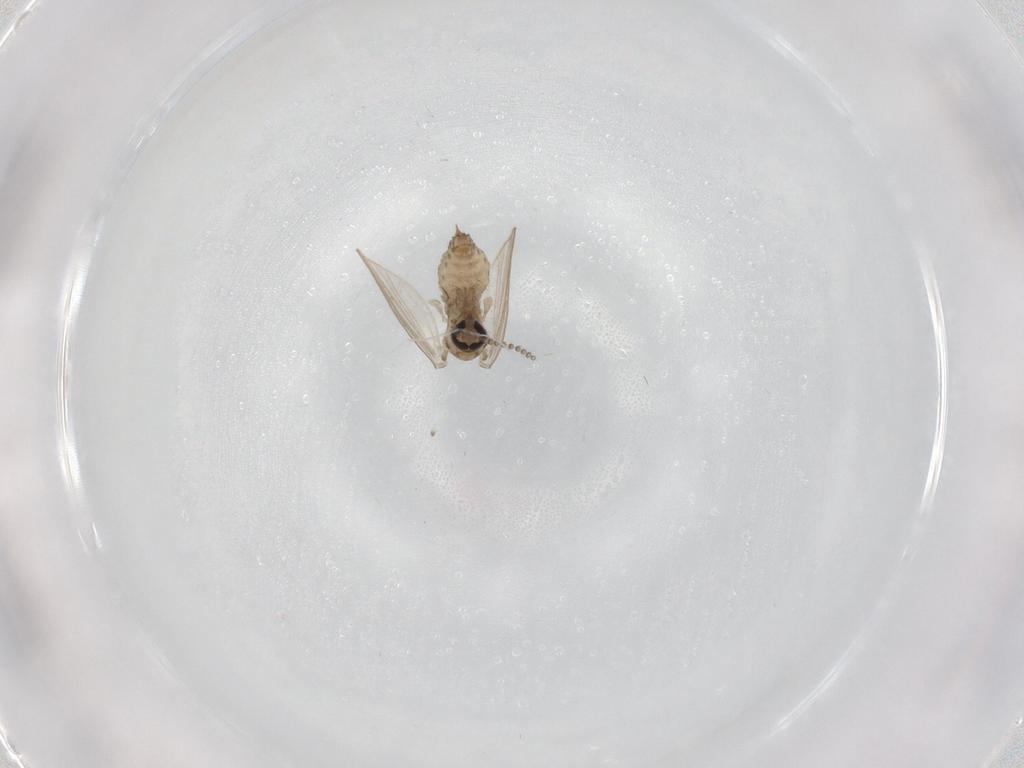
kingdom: Animalia
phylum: Arthropoda
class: Insecta
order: Diptera
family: Psychodidae
